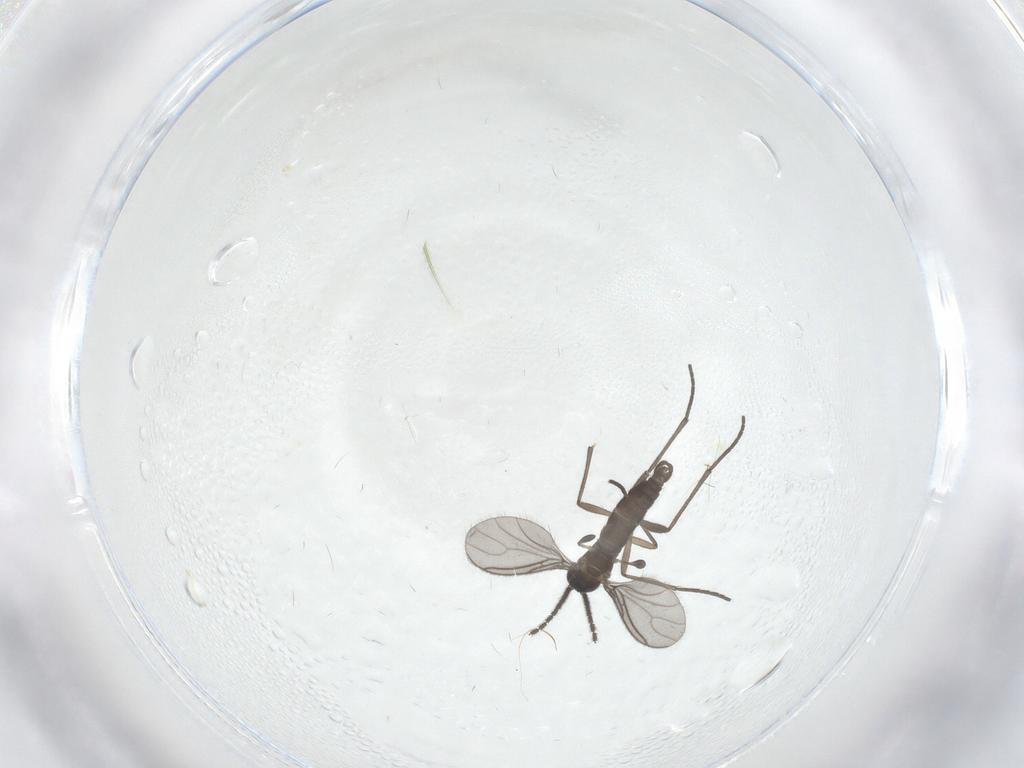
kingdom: Animalia
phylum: Arthropoda
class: Insecta
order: Diptera
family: Sciaridae
